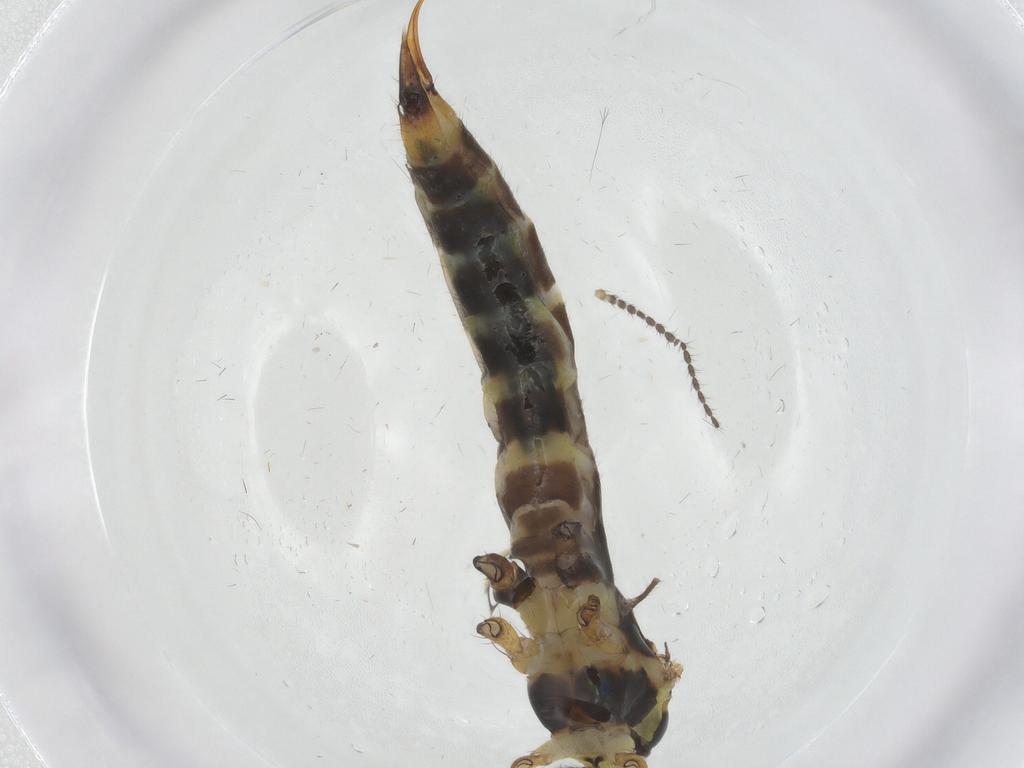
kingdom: Animalia
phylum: Arthropoda
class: Insecta
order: Diptera
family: Limoniidae
